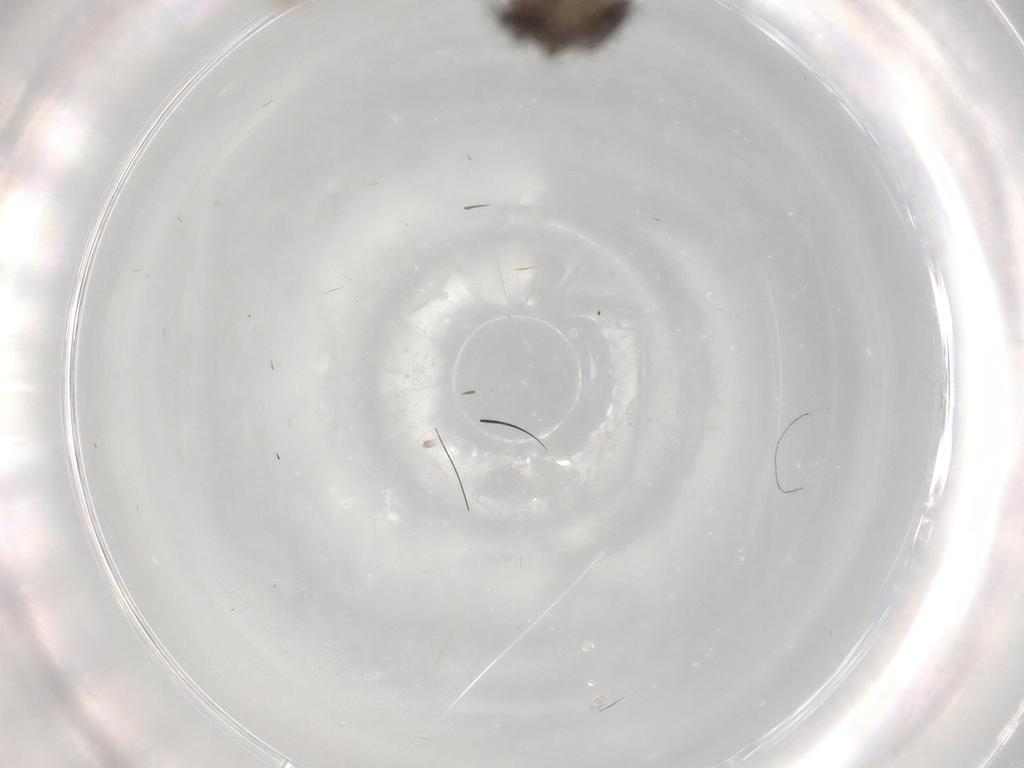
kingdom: Animalia
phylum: Arthropoda
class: Insecta
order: Neuroptera
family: Coniopterygidae
